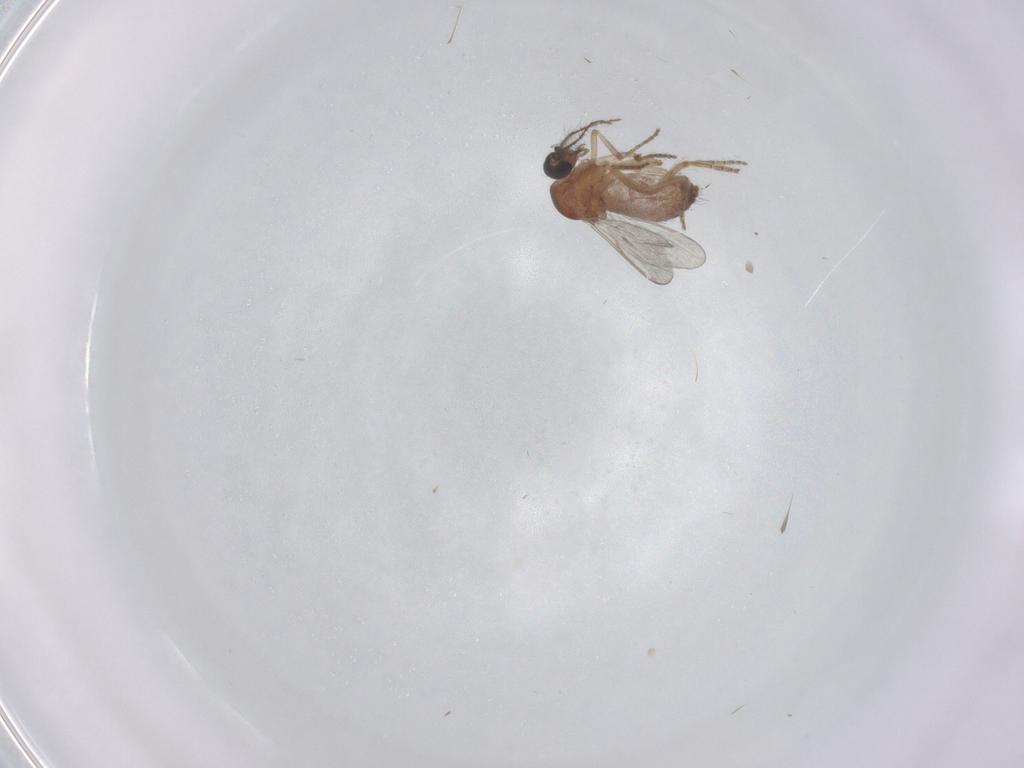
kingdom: Animalia
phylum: Arthropoda
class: Insecta
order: Diptera
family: Ceratopogonidae
